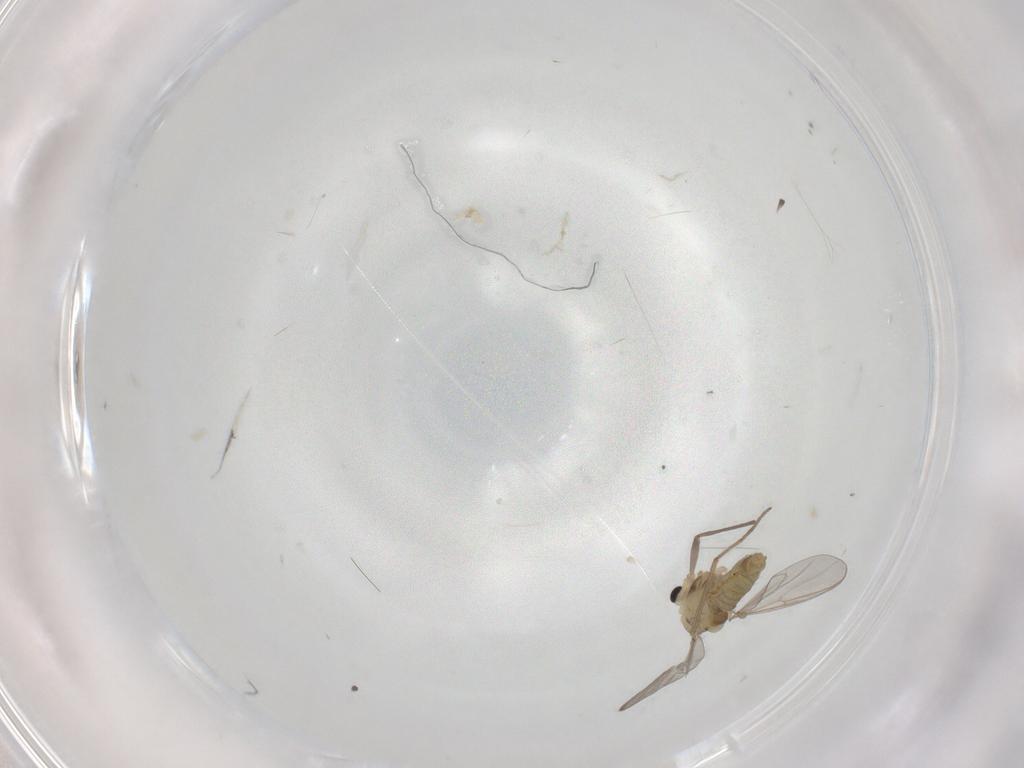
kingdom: Animalia
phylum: Arthropoda
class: Insecta
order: Diptera
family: Chironomidae
